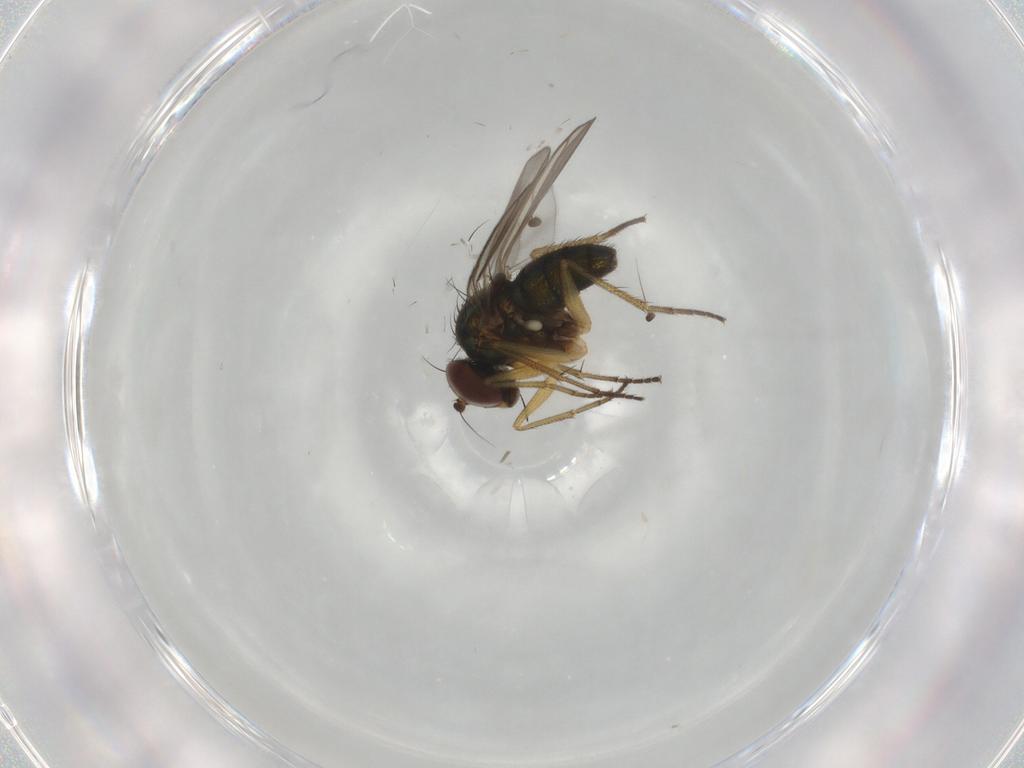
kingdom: Animalia
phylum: Arthropoda
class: Insecta
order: Diptera
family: Dolichopodidae
